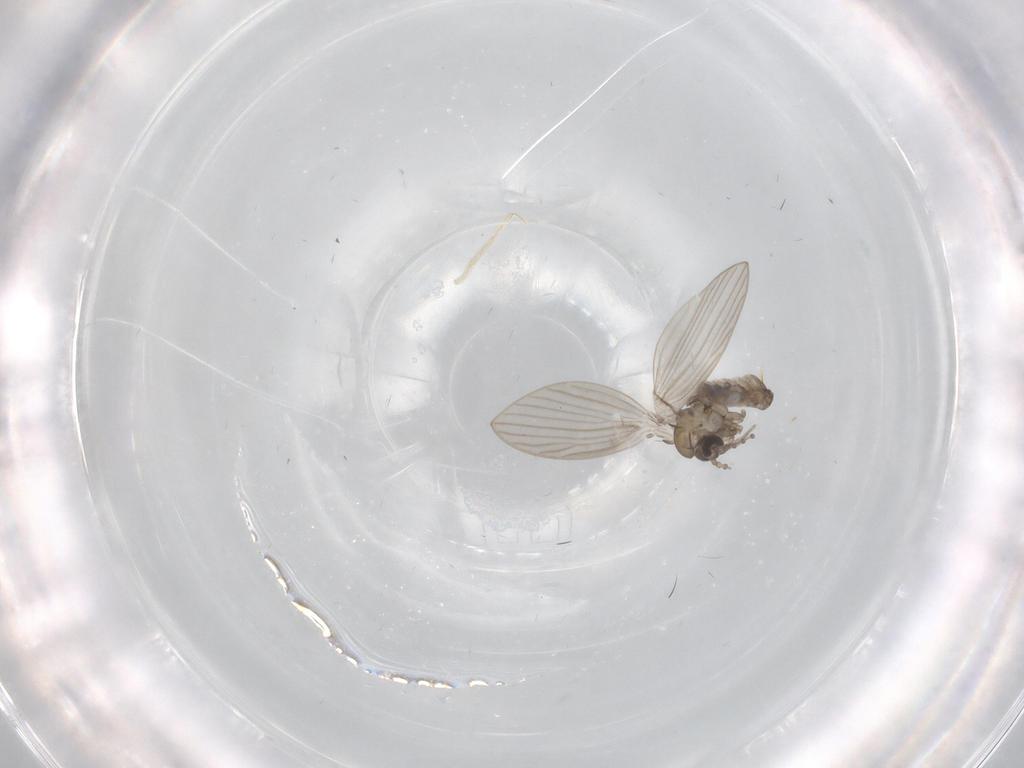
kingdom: Animalia
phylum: Arthropoda
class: Insecta
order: Diptera
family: Psychodidae
